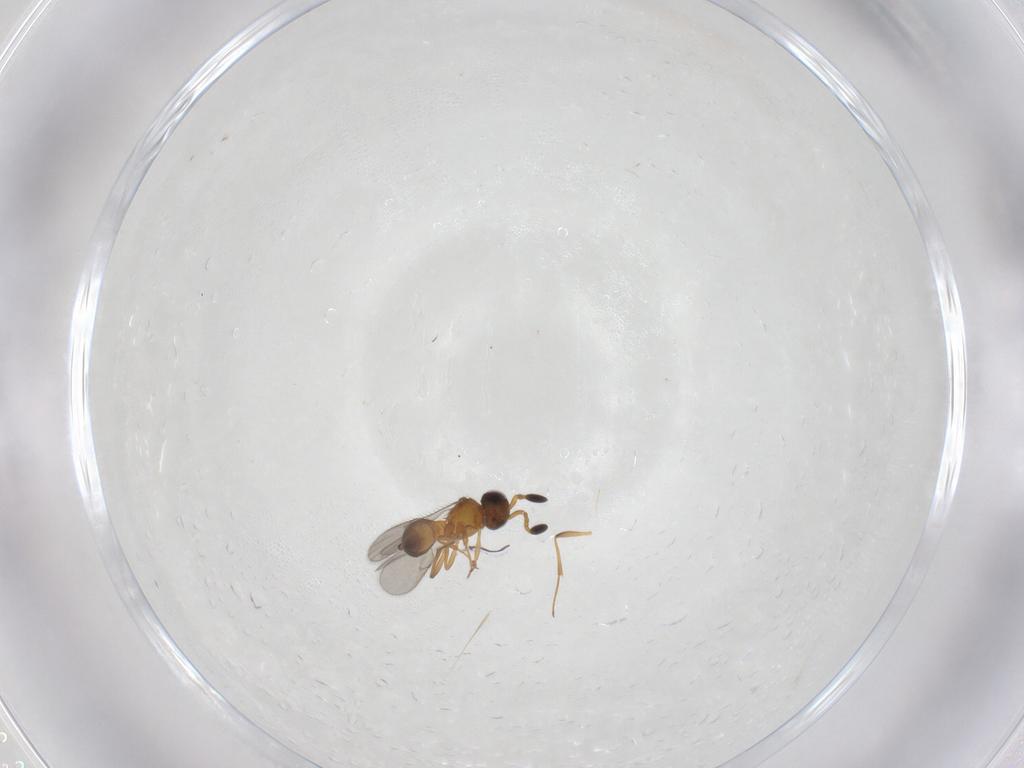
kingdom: Animalia
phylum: Arthropoda
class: Insecta
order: Hymenoptera
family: Scelionidae
